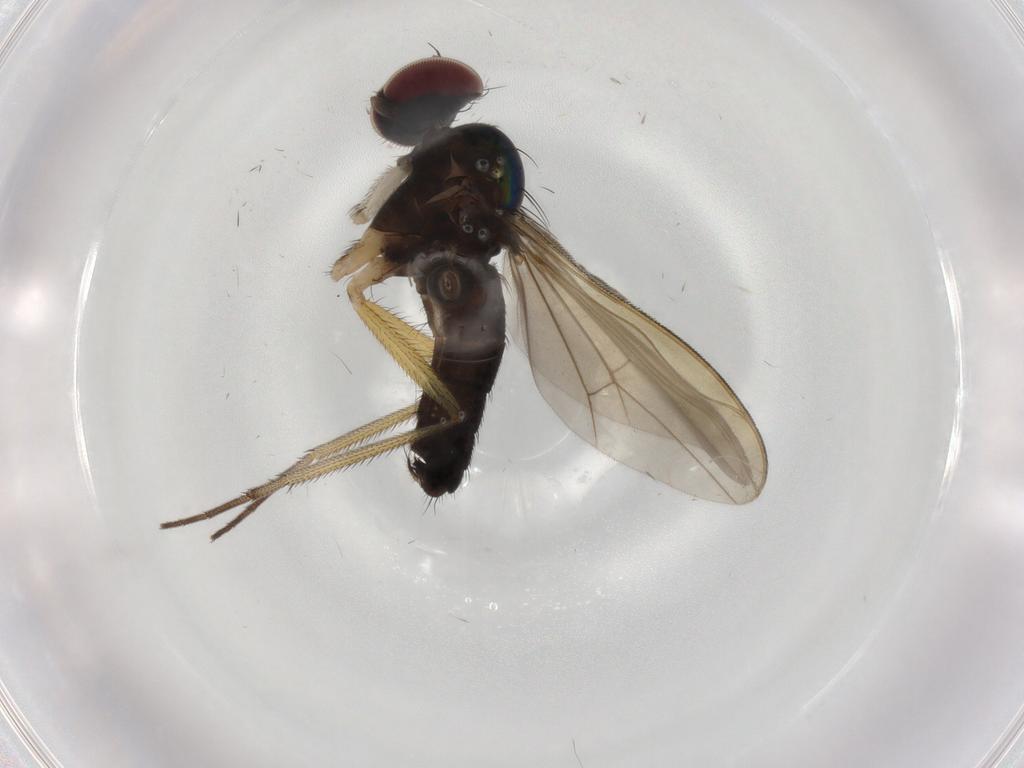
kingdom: Animalia
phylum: Arthropoda
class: Insecta
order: Diptera
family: Dolichopodidae
